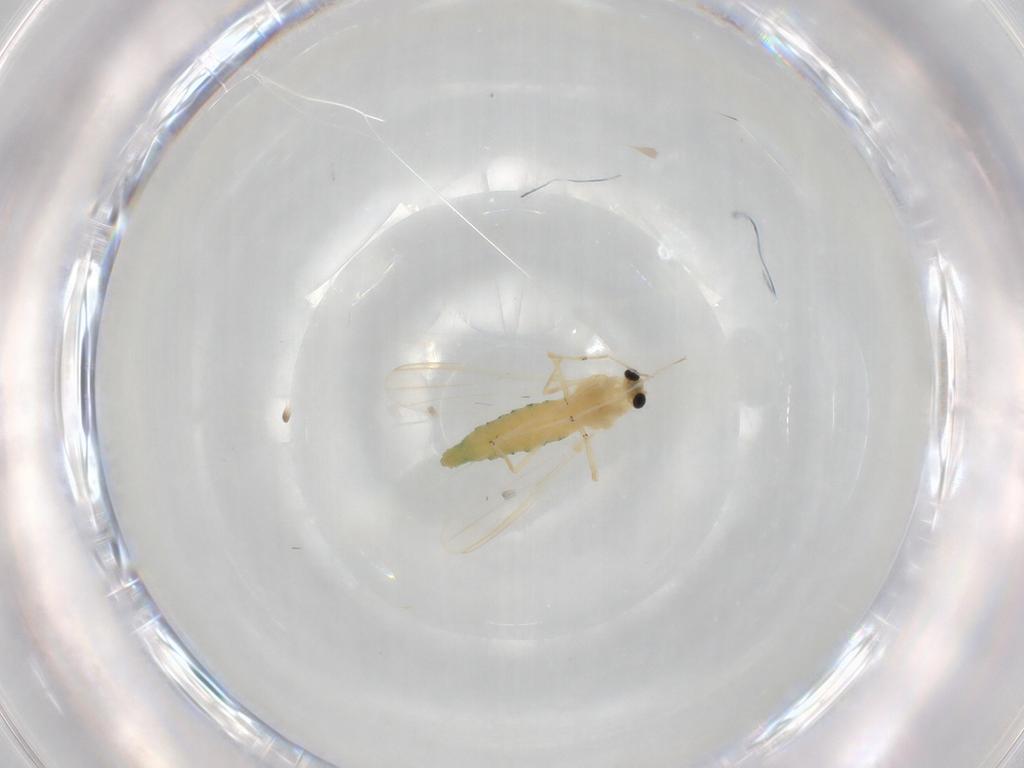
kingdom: Animalia
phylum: Arthropoda
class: Insecta
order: Diptera
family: Chironomidae
